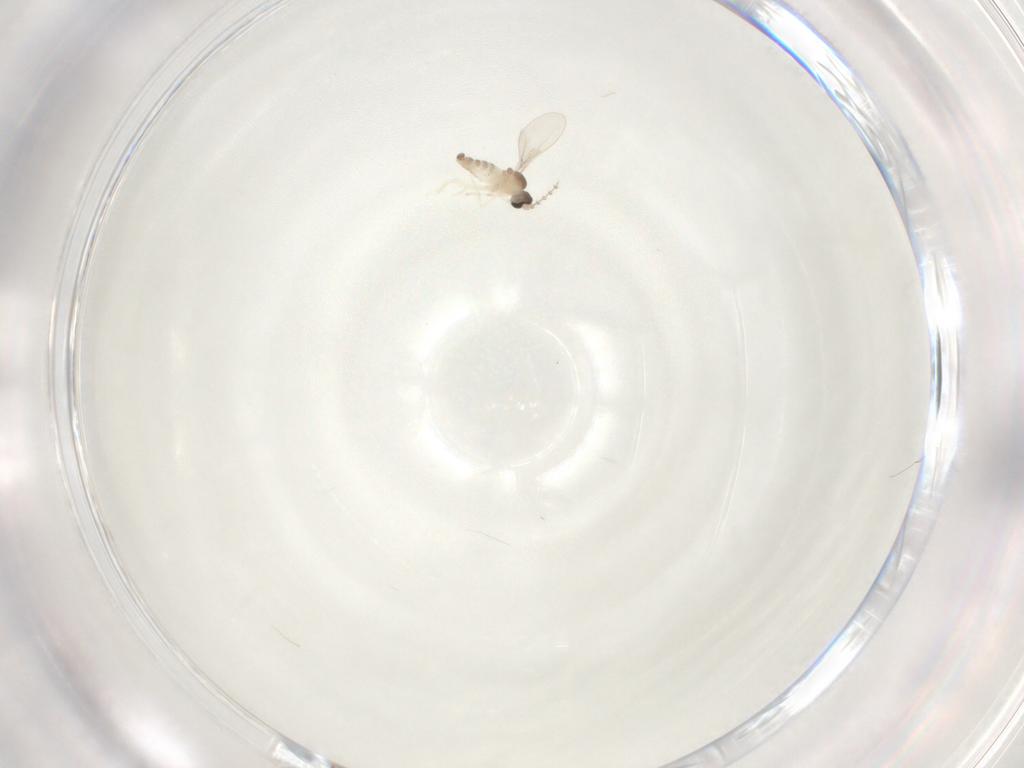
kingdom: Animalia
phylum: Arthropoda
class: Insecta
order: Diptera
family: Cecidomyiidae
